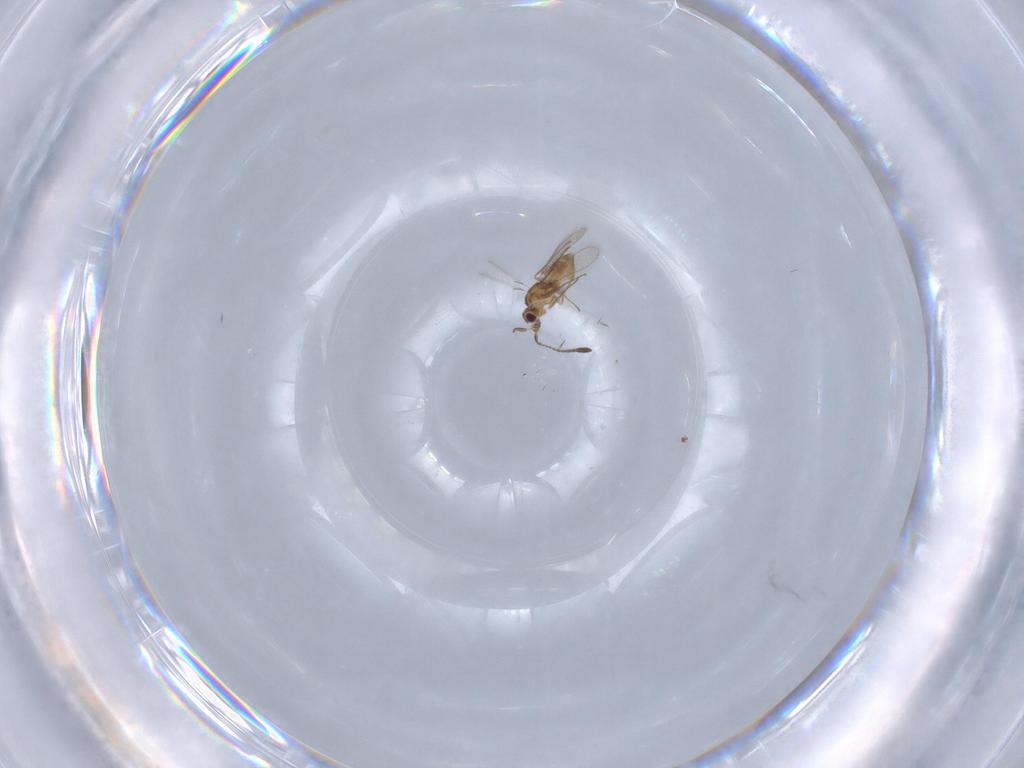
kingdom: Animalia
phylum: Arthropoda
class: Insecta
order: Hymenoptera
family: Mymaridae
